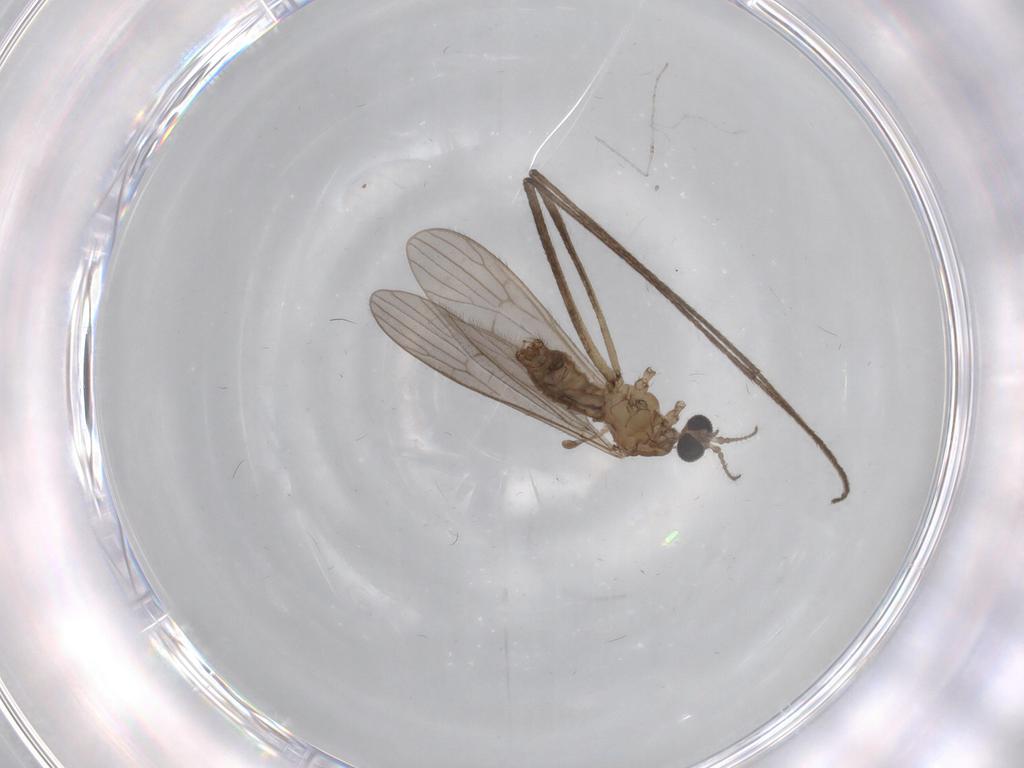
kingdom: Animalia
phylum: Arthropoda
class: Insecta
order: Diptera
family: Limoniidae
